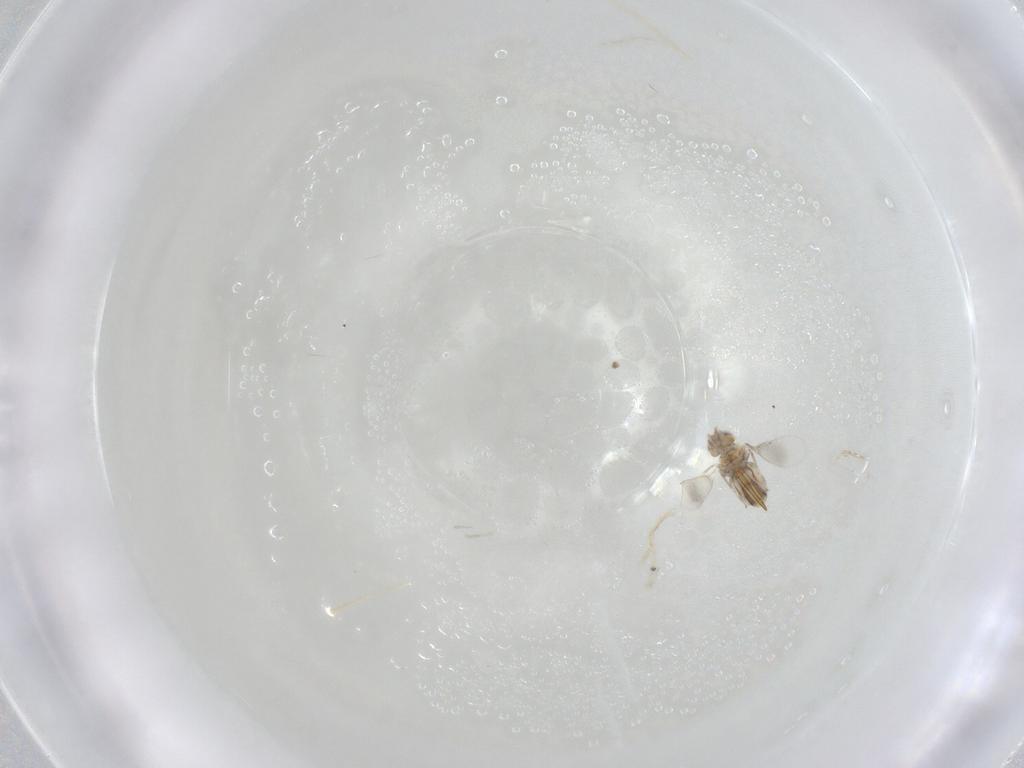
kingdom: Animalia
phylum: Arthropoda
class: Insecta
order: Hymenoptera
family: Aphelinidae
